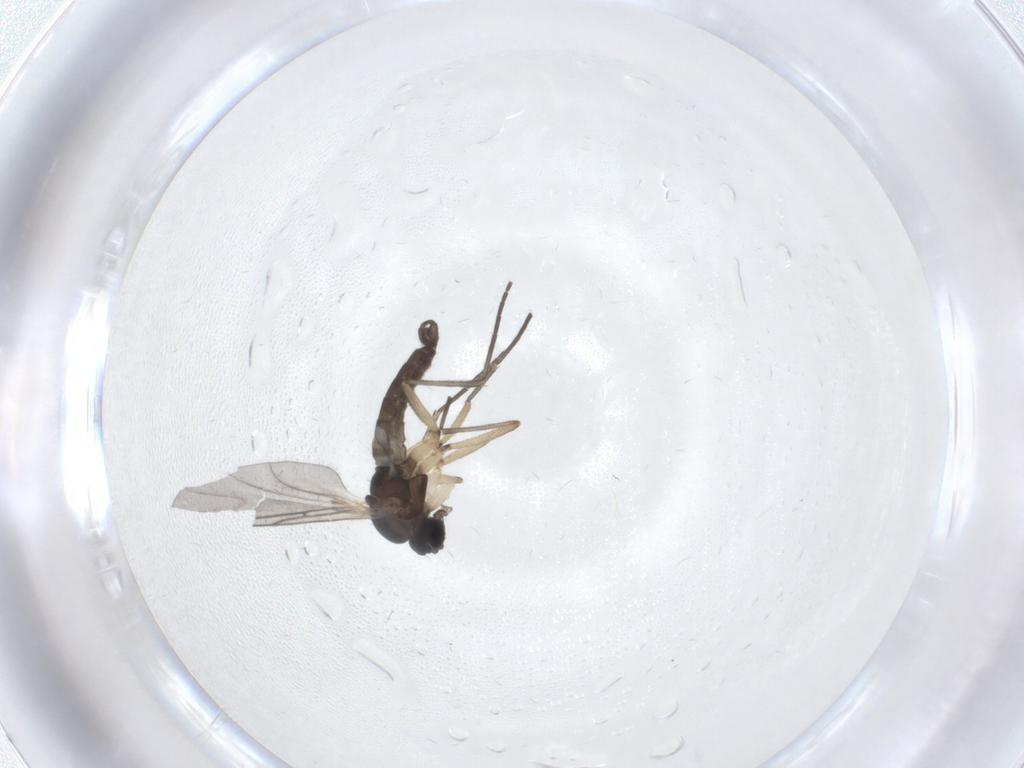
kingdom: Animalia
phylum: Arthropoda
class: Insecta
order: Diptera
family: Sciaridae
